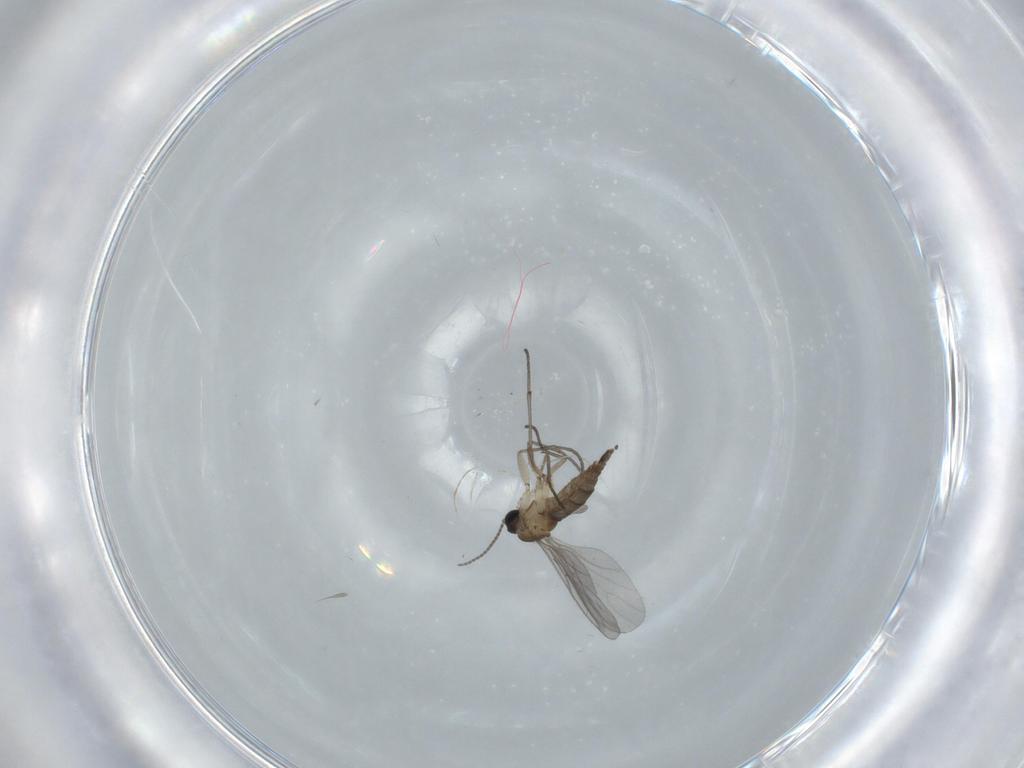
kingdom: Animalia
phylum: Arthropoda
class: Insecta
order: Diptera
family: Sciaridae
